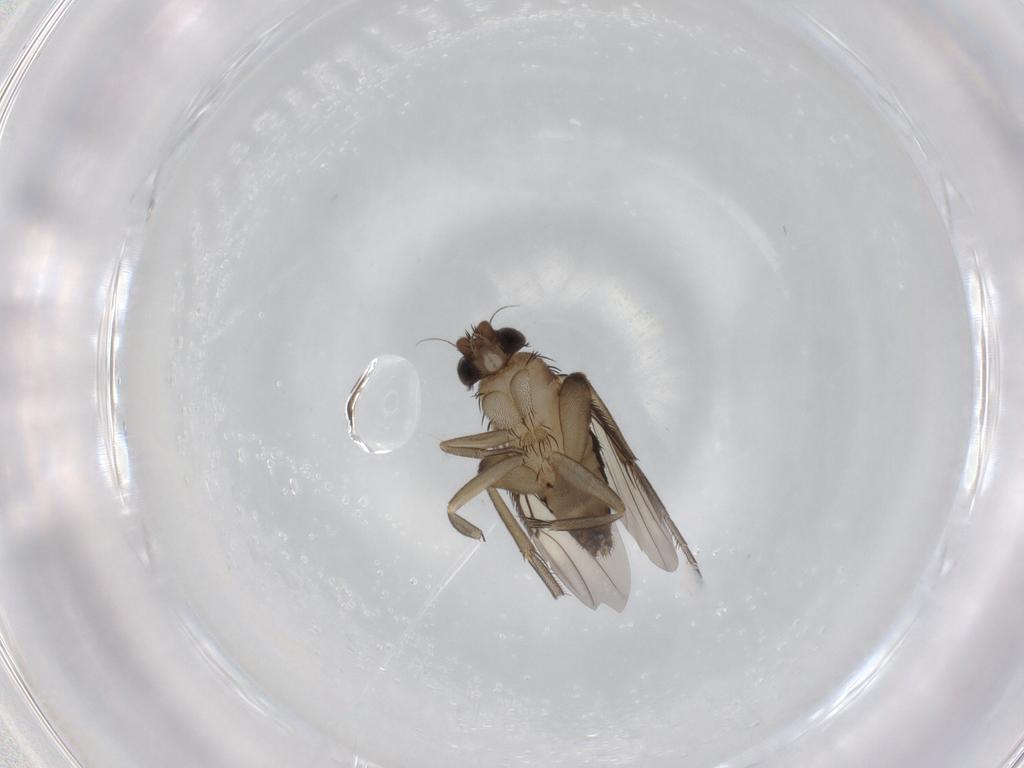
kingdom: Animalia
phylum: Arthropoda
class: Insecta
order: Diptera
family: Phoridae
